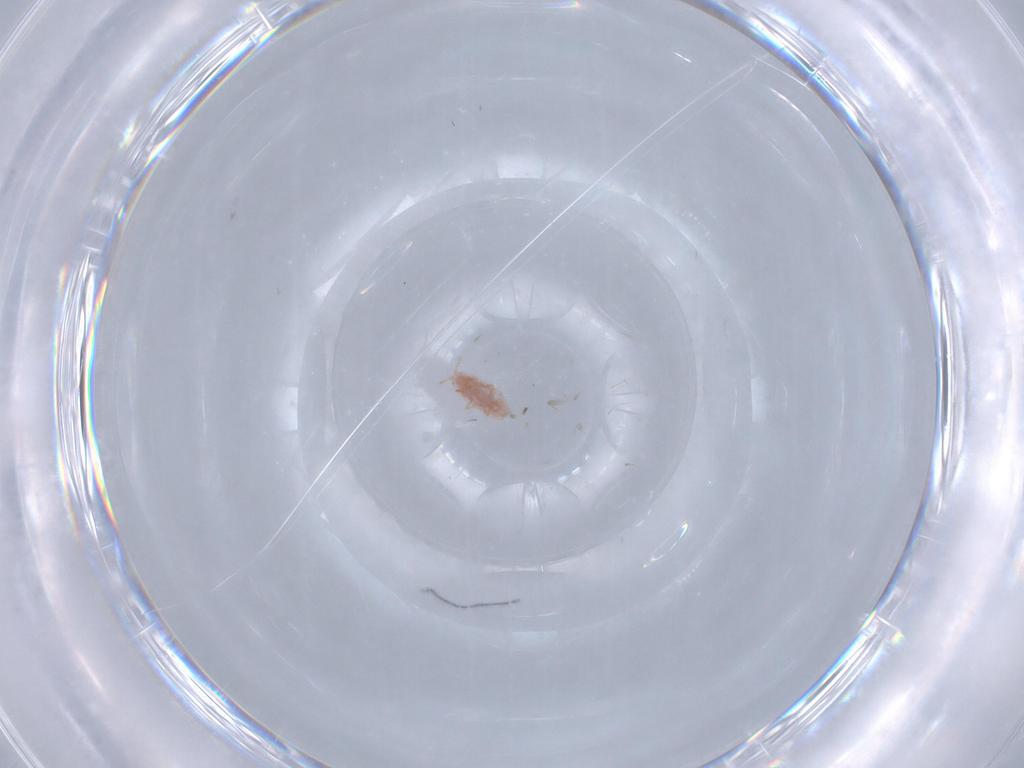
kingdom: Animalia
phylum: Arthropoda
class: Insecta
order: Hemiptera
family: Pseudococcidae
